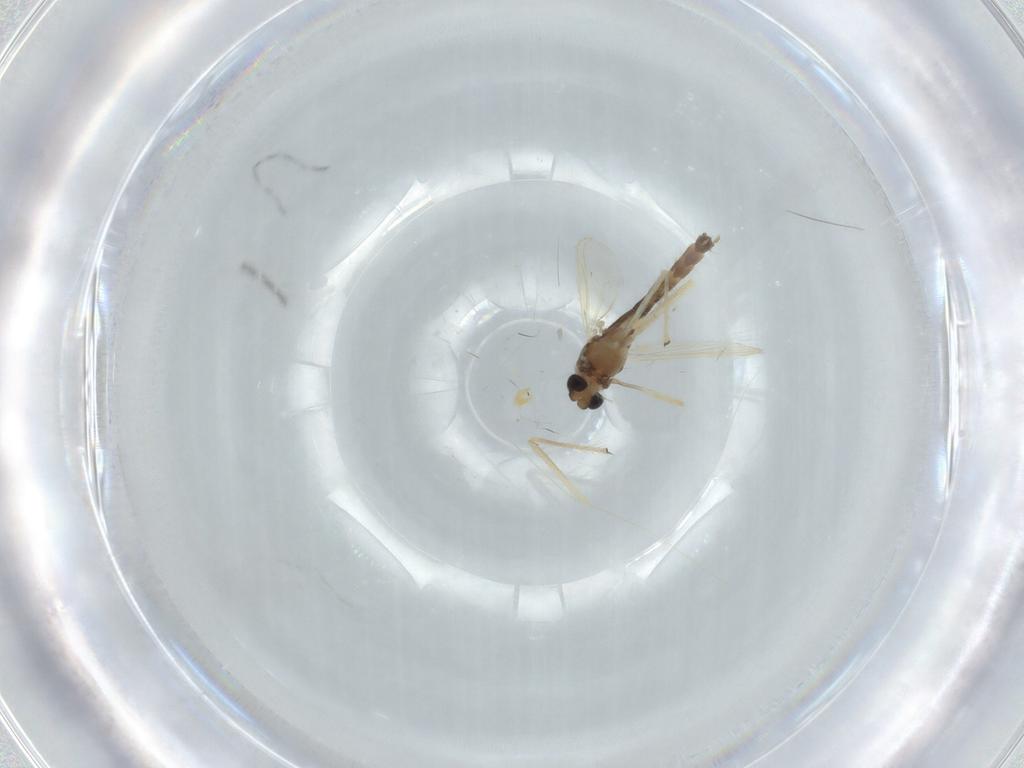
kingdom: Animalia
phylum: Arthropoda
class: Insecta
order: Diptera
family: Chironomidae
